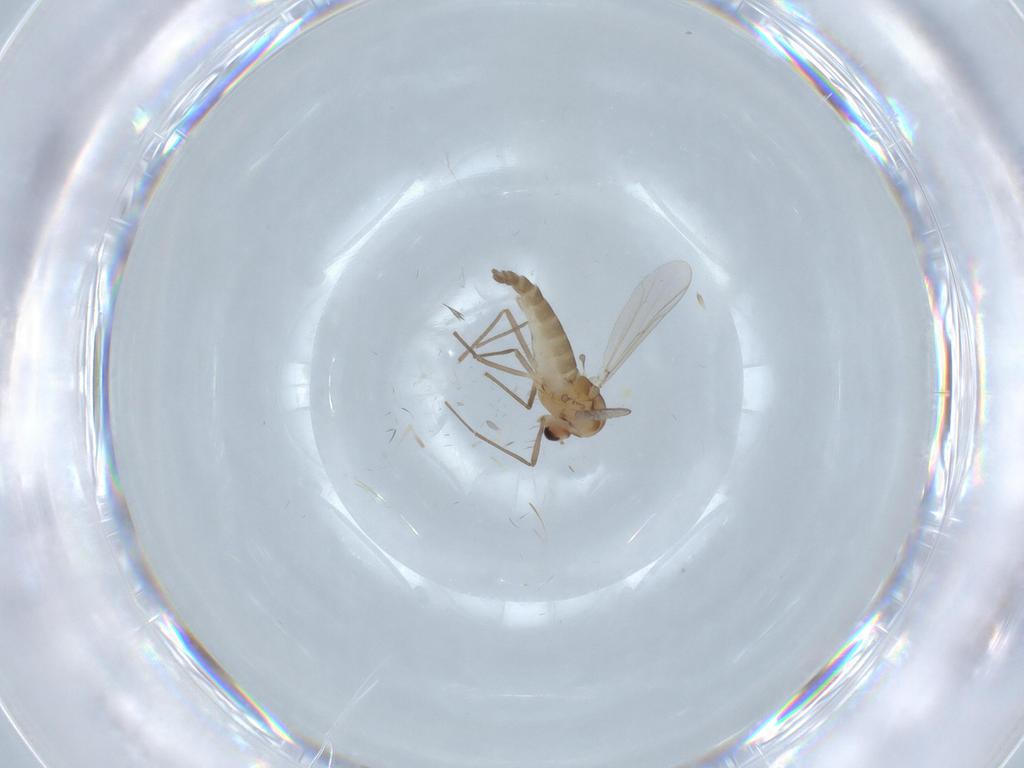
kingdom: Animalia
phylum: Arthropoda
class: Insecta
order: Diptera
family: Chironomidae
